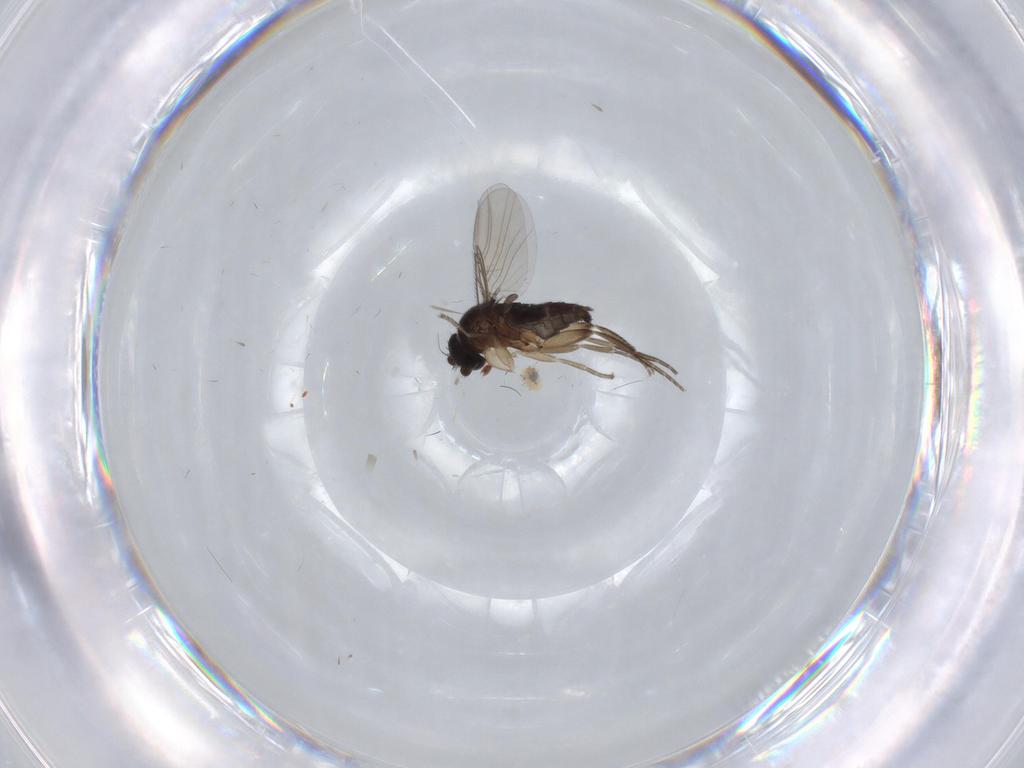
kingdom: Animalia
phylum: Arthropoda
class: Insecta
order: Diptera
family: Phoridae
